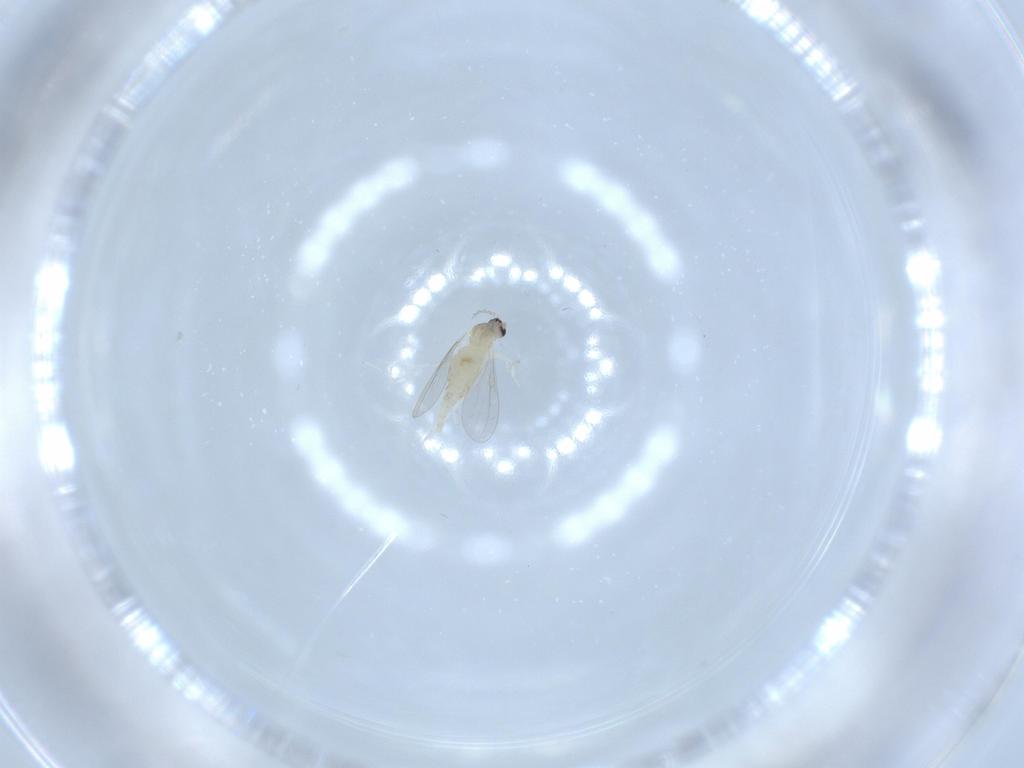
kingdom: Animalia
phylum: Arthropoda
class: Insecta
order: Diptera
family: Cecidomyiidae
